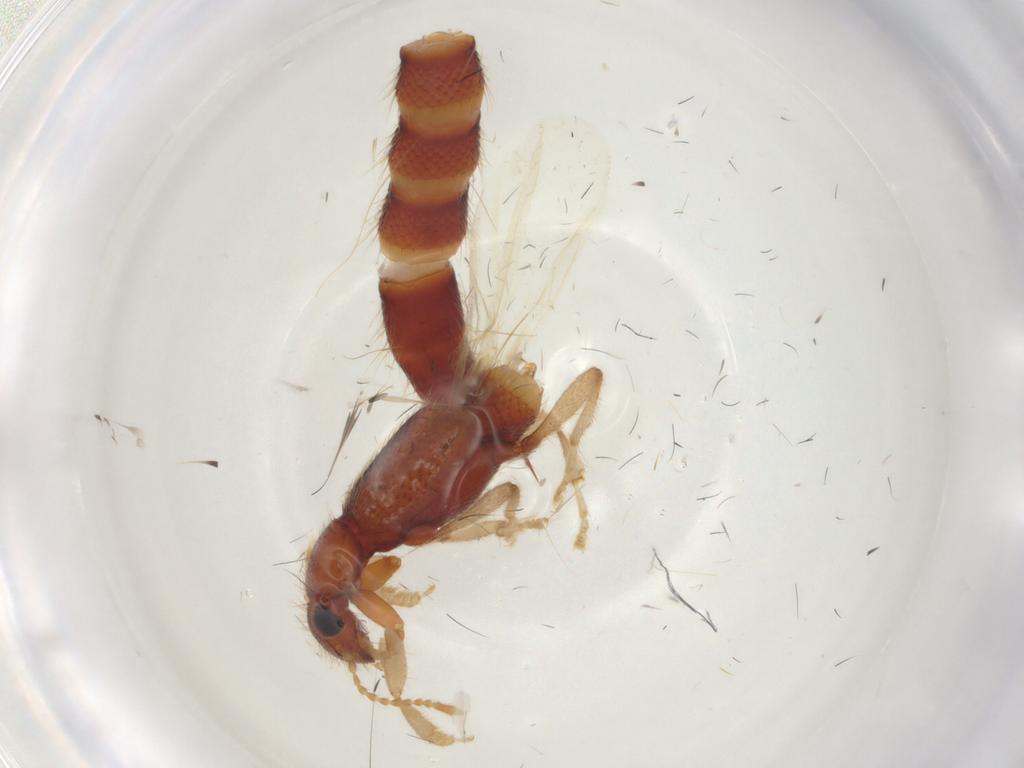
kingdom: Animalia
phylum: Arthropoda
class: Insecta
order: Coleoptera
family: Staphylinidae
